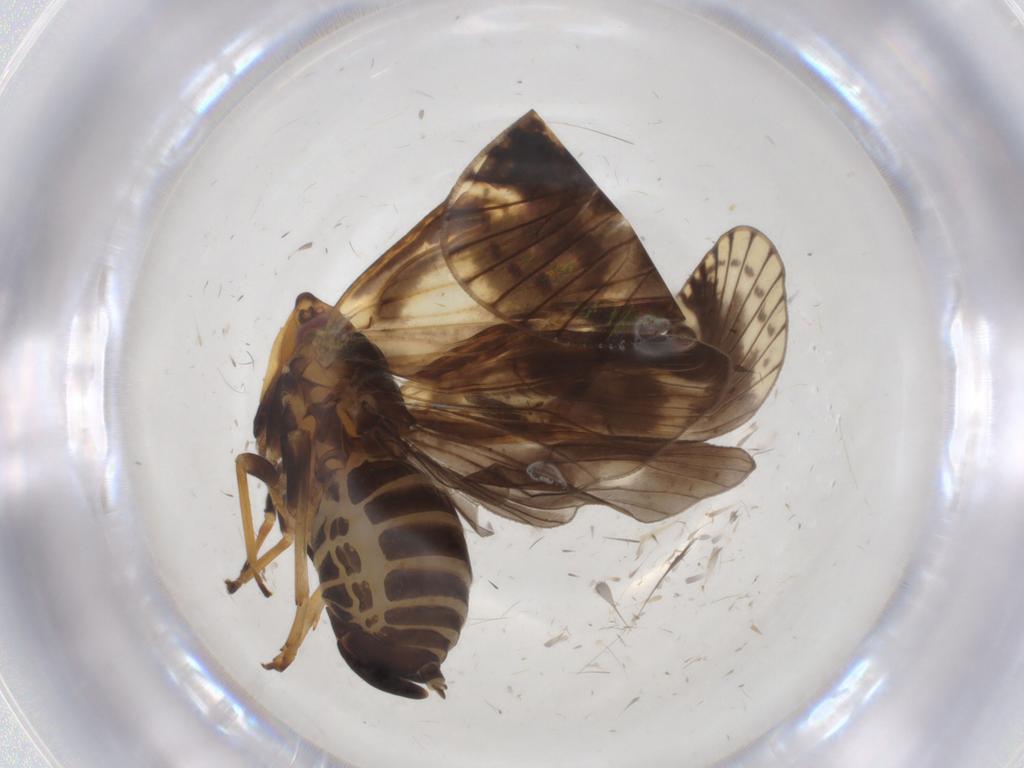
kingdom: Animalia
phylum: Arthropoda
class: Insecta
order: Hemiptera
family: Cixiidae
